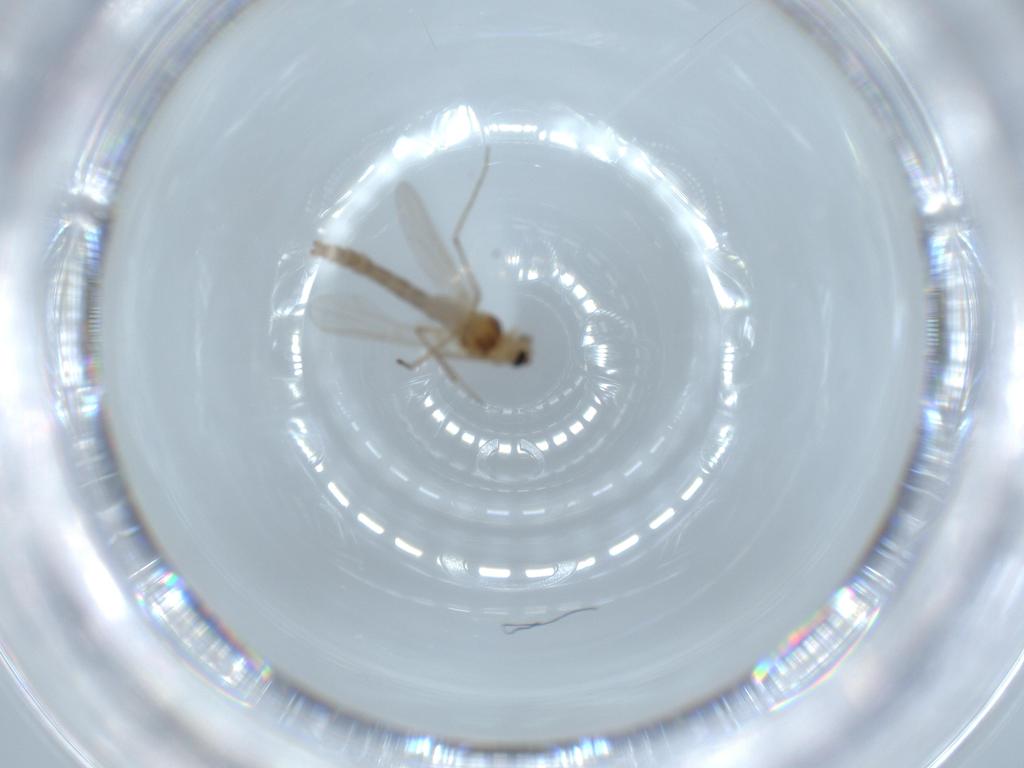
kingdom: Animalia
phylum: Arthropoda
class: Insecta
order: Diptera
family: Chironomidae
